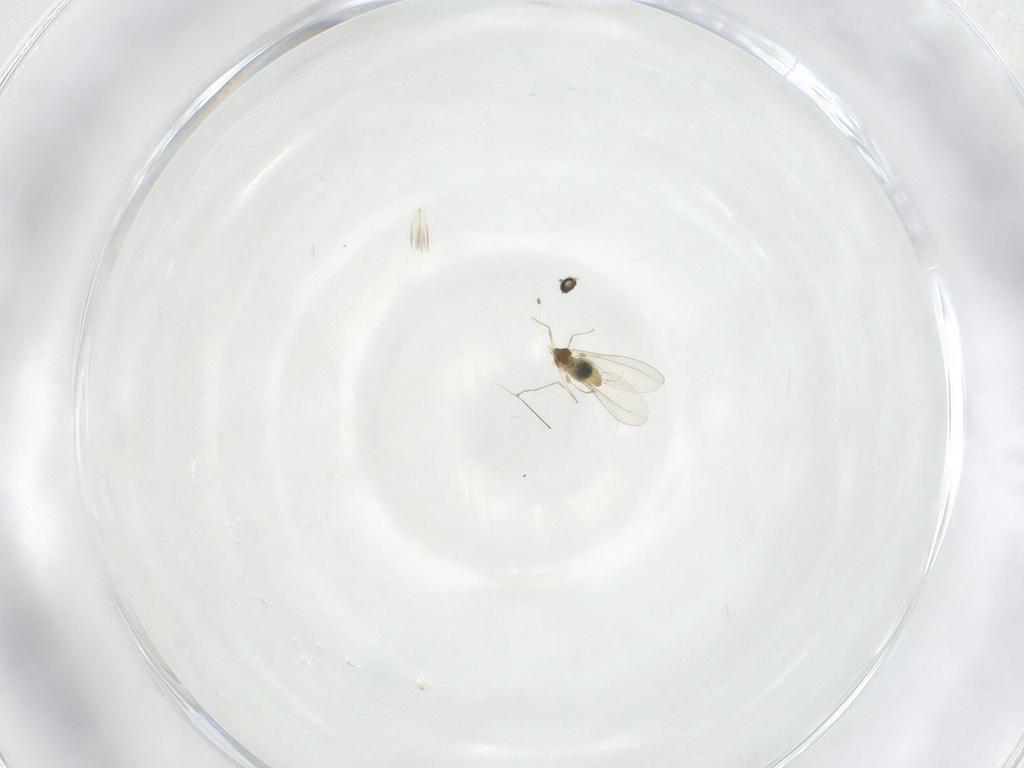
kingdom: Animalia
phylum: Arthropoda
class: Insecta
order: Diptera
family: Cecidomyiidae
